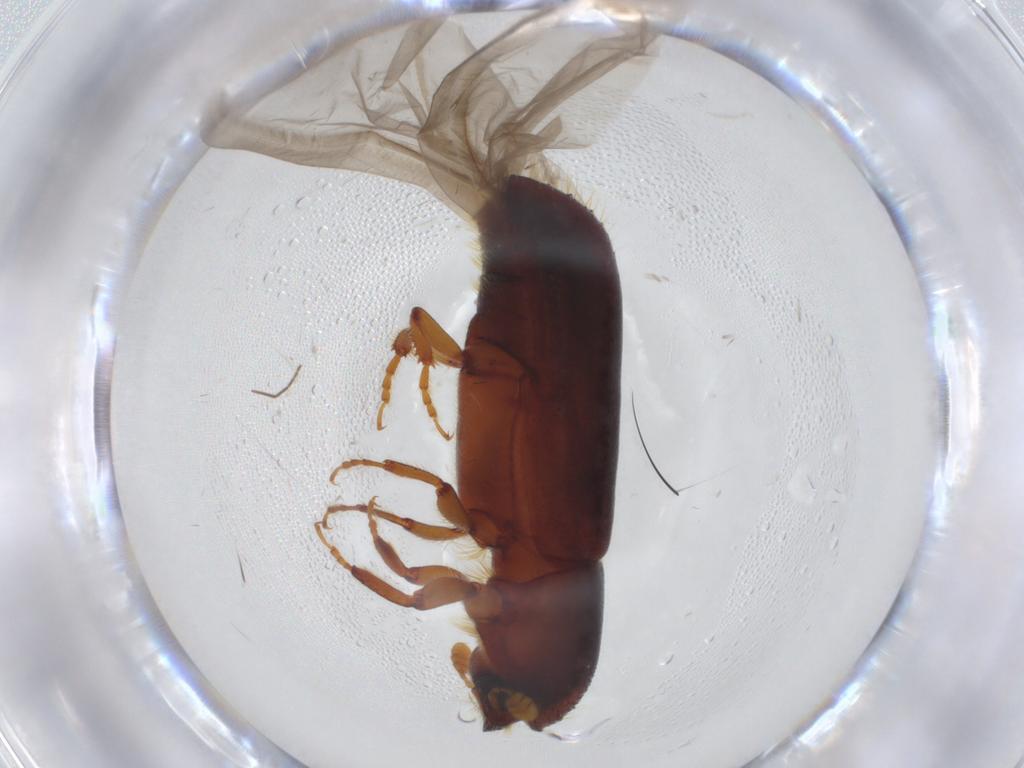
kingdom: Animalia
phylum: Arthropoda
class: Insecta
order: Coleoptera
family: Curculionidae
